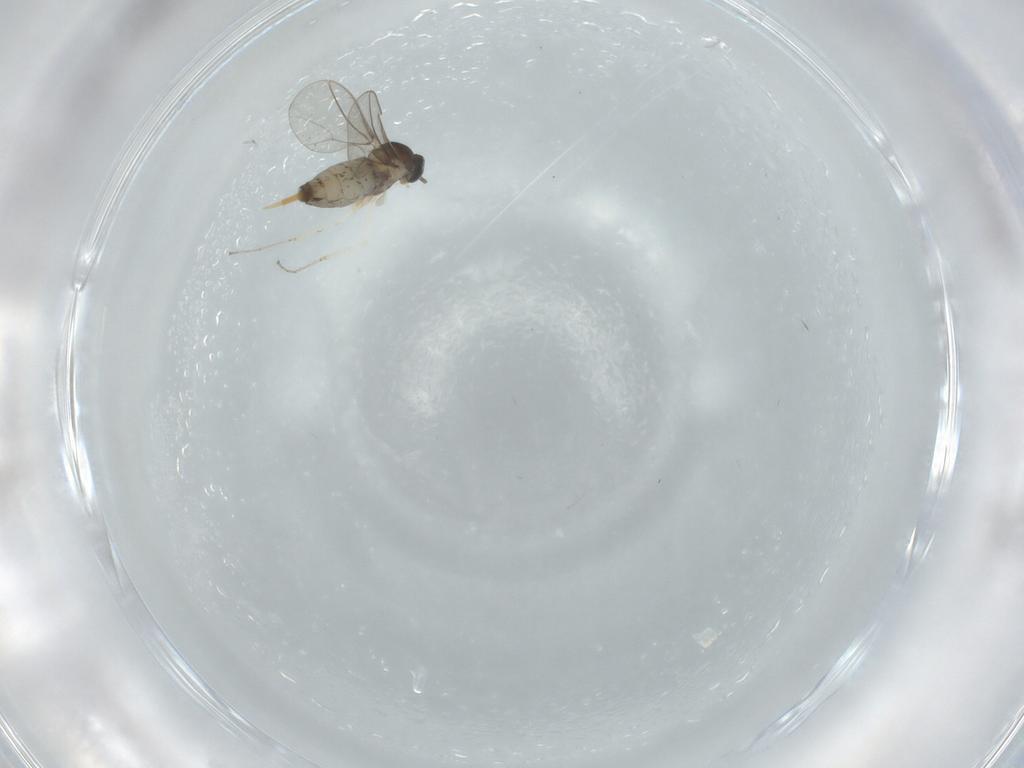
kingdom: Animalia
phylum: Arthropoda
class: Insecta
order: Diptera
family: Cecidomyiidae
